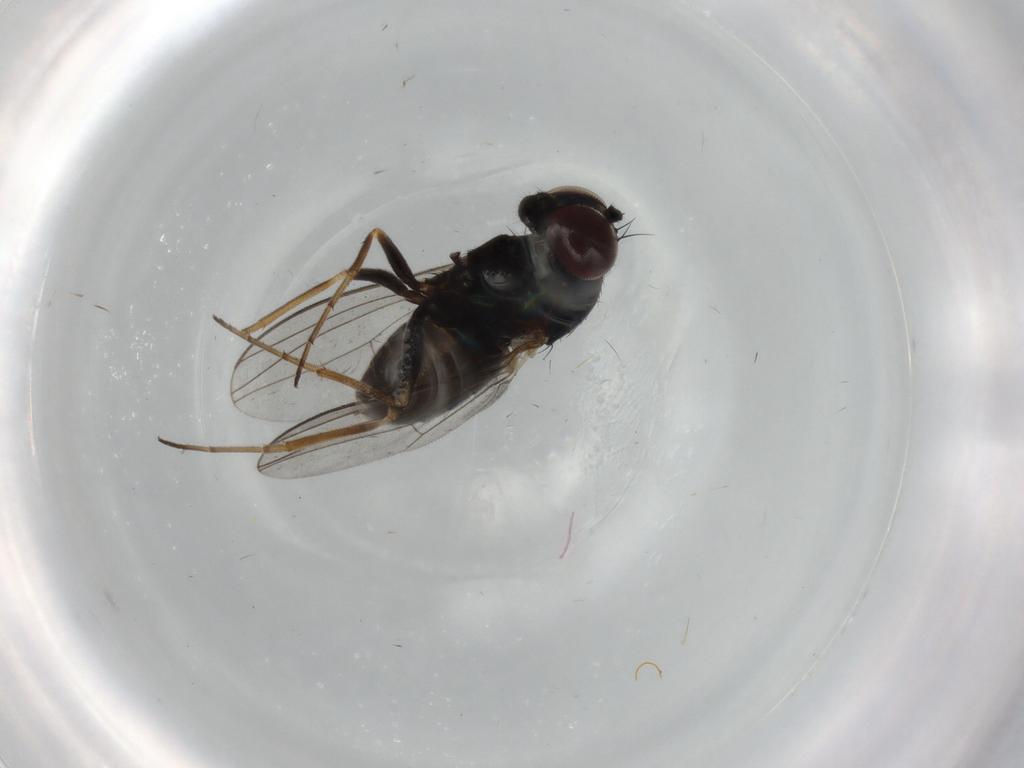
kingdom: Animalia
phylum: Arthropoda
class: Insecta
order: Diptera
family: Dolichopodidae
